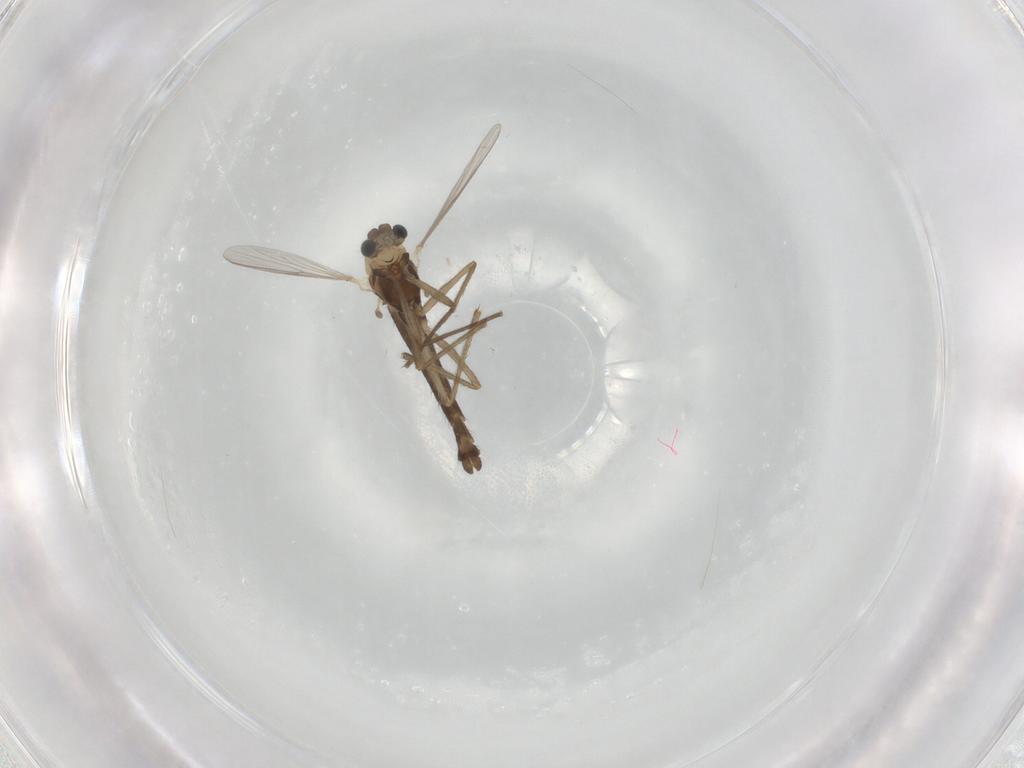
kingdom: Animalia
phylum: Arthropoda
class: Insecta
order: Diptera
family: Chironomidae
